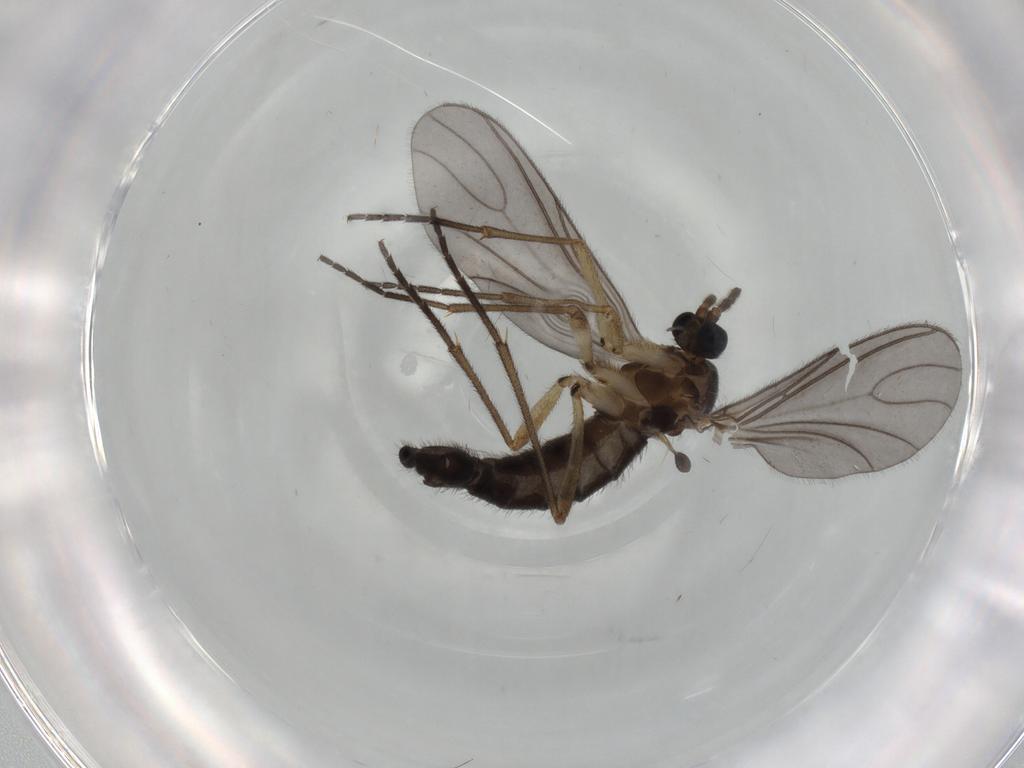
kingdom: Animalia
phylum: Arthropoda
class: Insecta
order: Diptera
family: Sciaridae
